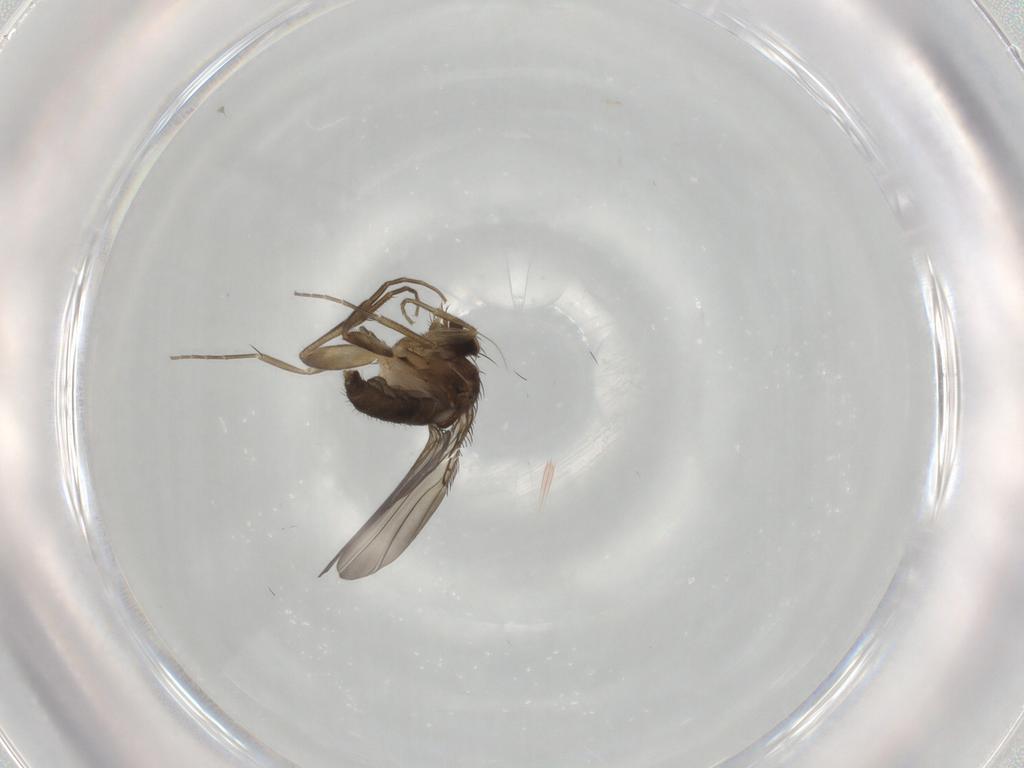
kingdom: Animalia
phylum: Arthropoda
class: Insecta
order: Diptera
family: Phoridae
